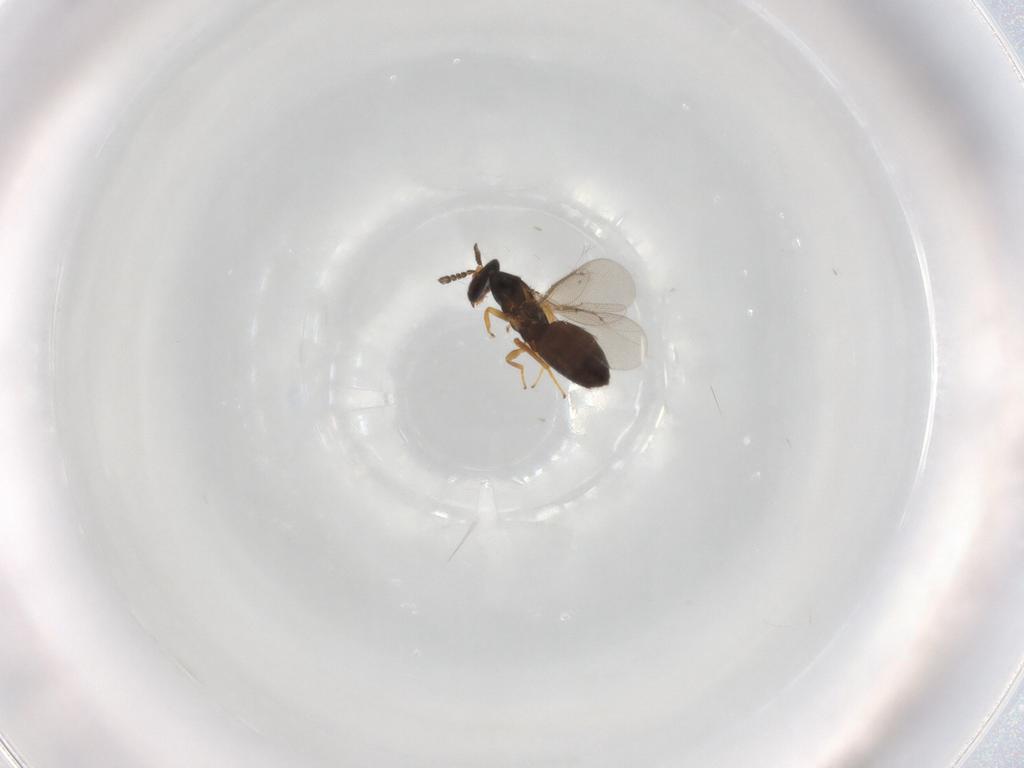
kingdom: Animalia
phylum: Arthropoda
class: Insecta
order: Hymenoptera
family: Eulophidae
